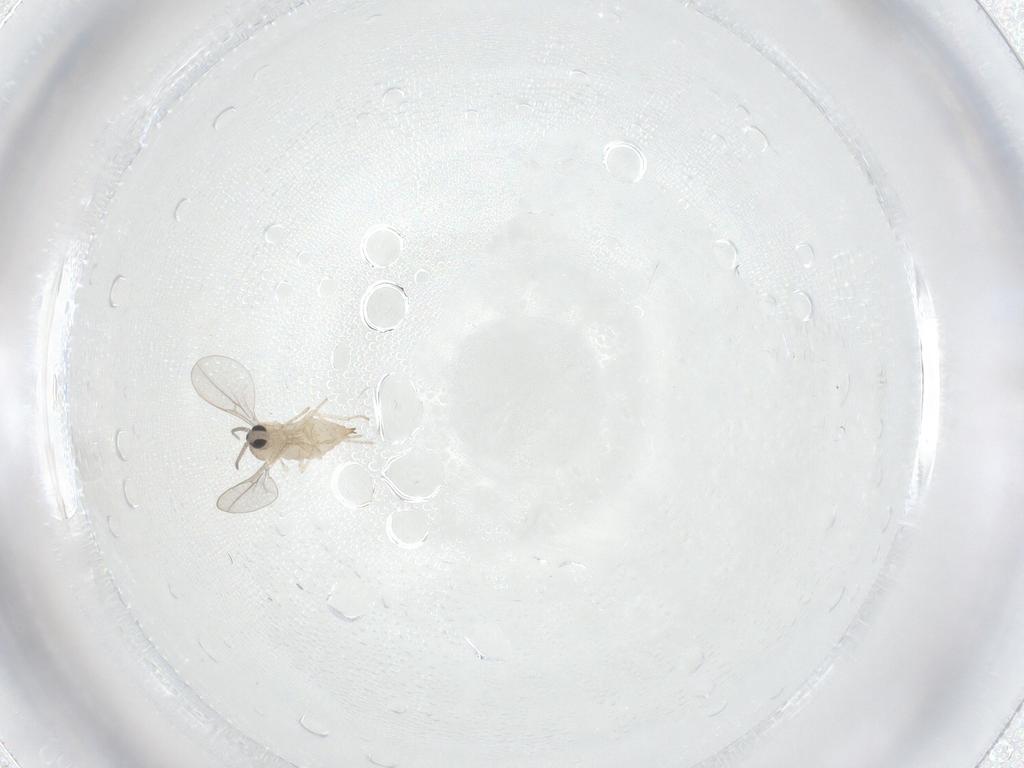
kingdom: Animalia
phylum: Arthropoda
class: Insecta
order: Diptera
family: Cecidomyiidae
